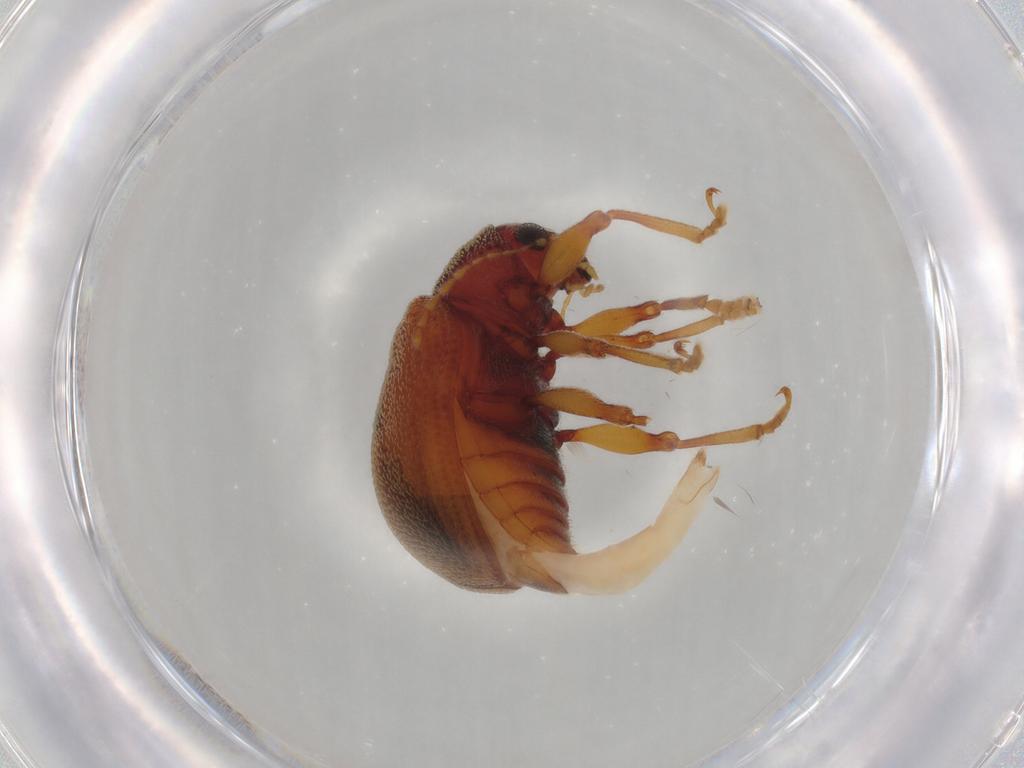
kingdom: Animalia
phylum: Arthropoda
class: Insecta
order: Coleoptera
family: Chrysomelidae
